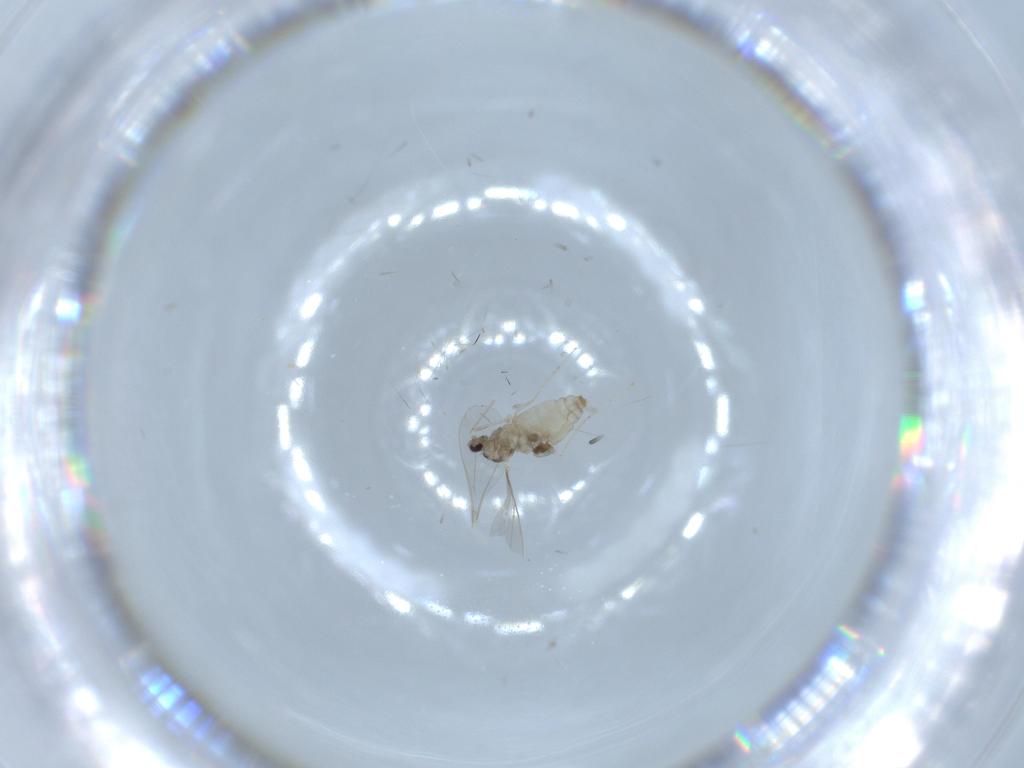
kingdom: Animalia
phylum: Arthropoda
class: Insecta
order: Diptera
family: Cecidomyiidae
